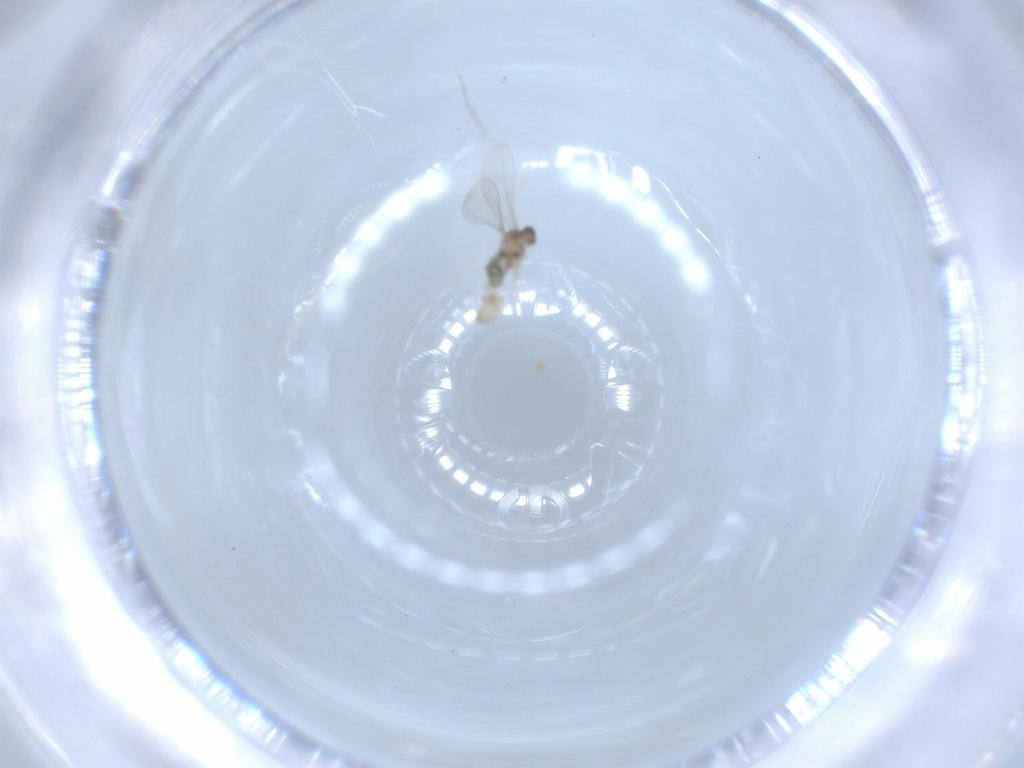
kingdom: Animalia
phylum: Arthropoda
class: Insecta
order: Diptera
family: Cecidomyiidae
